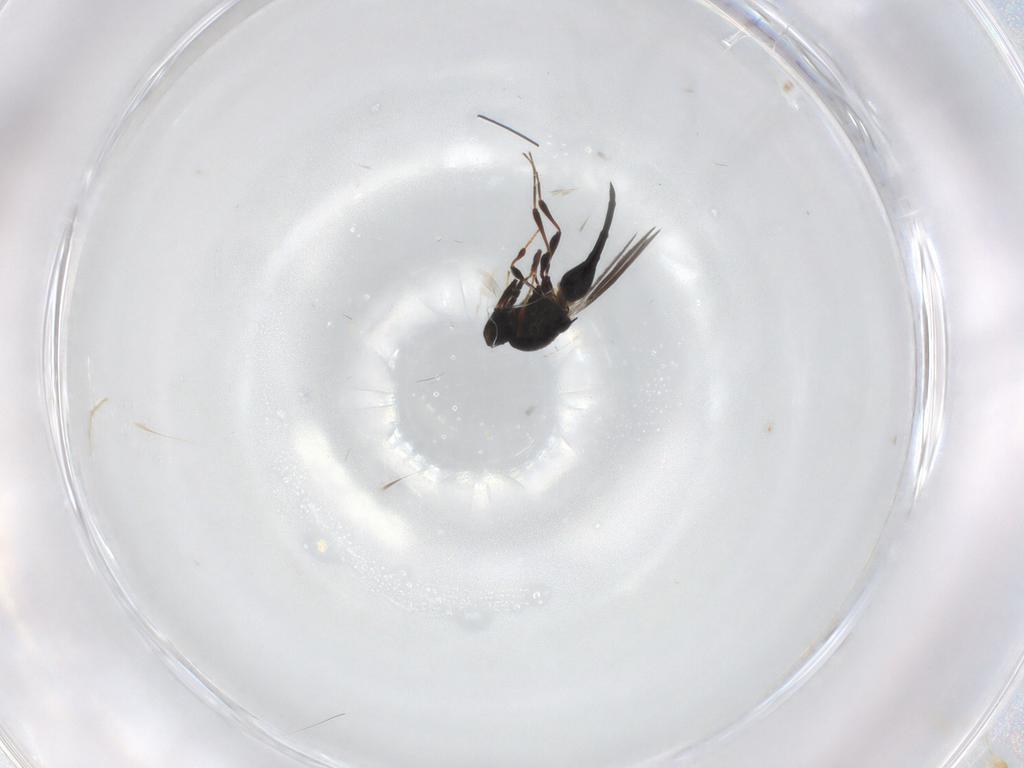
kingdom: Animalia
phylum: Arthropoda
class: Insecta
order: Hymenoptera
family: Platygastridae
